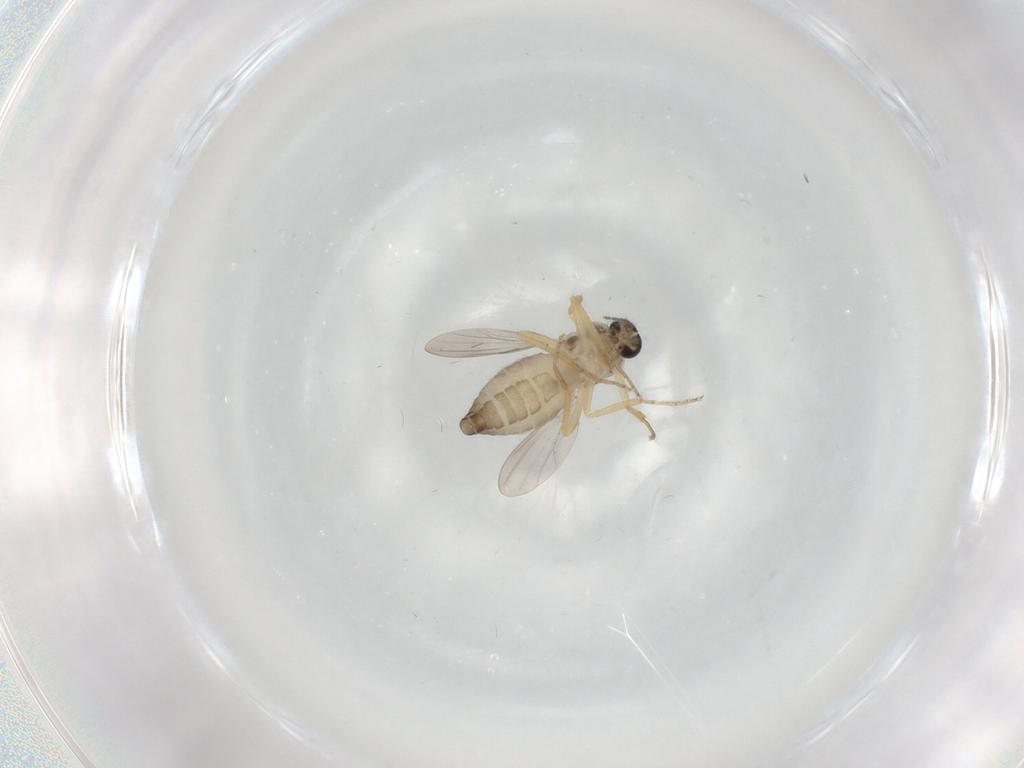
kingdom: Animalia
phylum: Arthropoda
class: Insecta
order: Diptera
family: Ceratopogonidae
